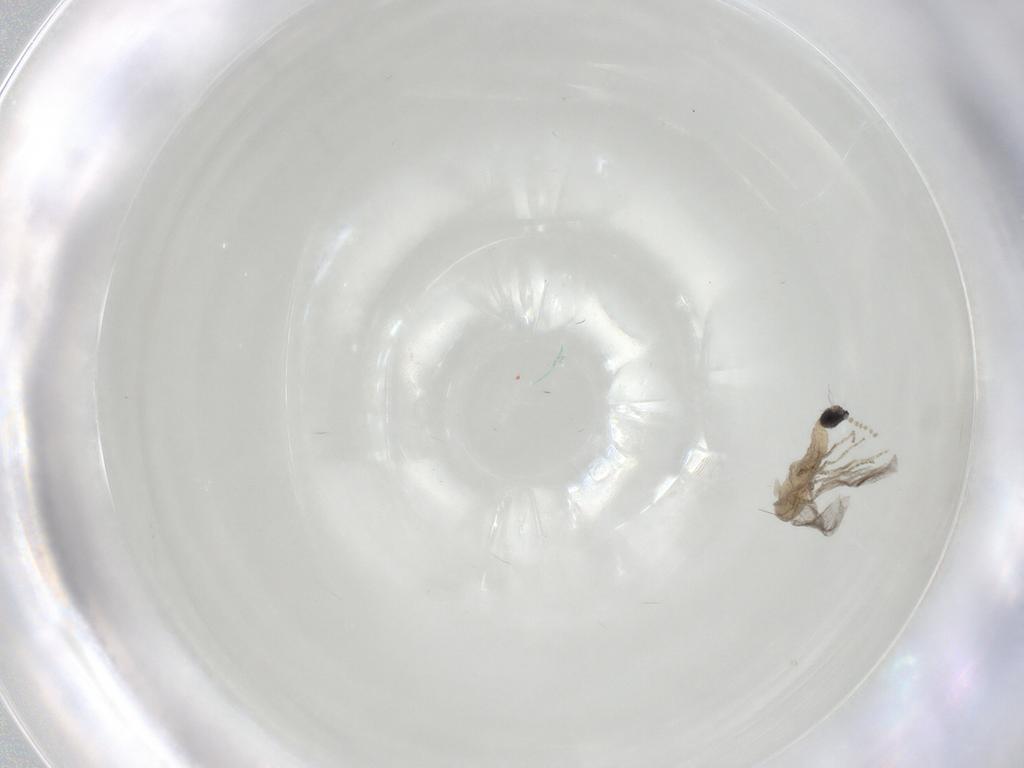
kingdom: Animalia
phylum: Arthropoda
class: Insecta
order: Diptera
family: Cecidomyiidae
